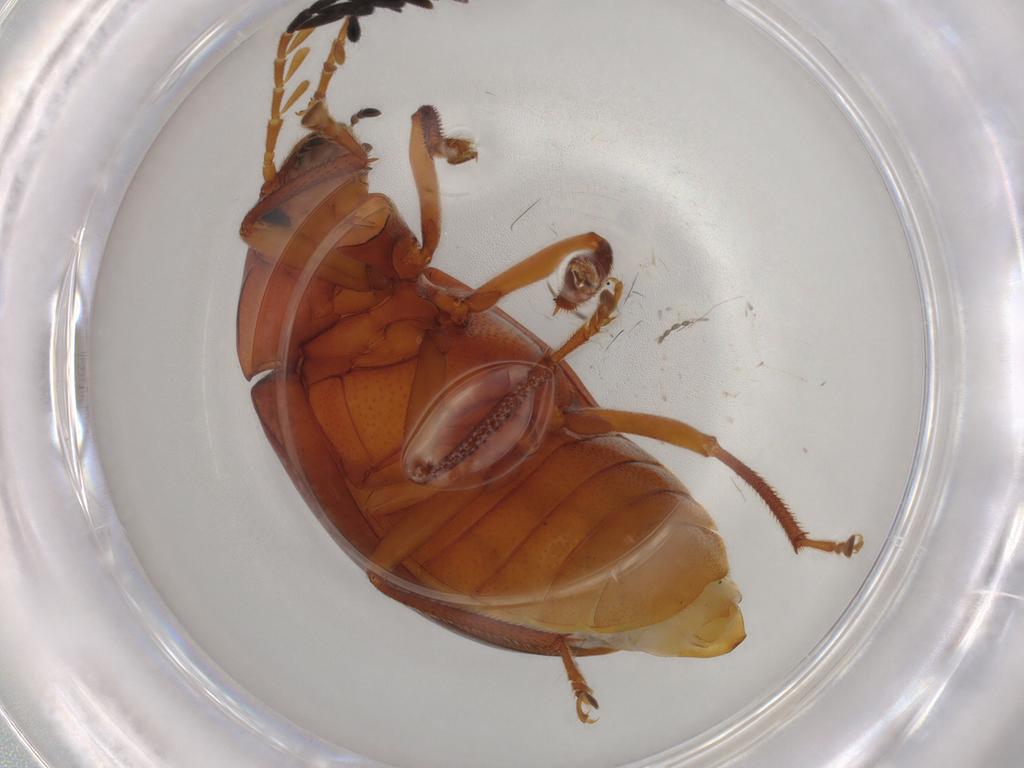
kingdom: Animalia
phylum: Arthropoda
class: Insecta
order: Coleoptera
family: Ptilodactylidae
